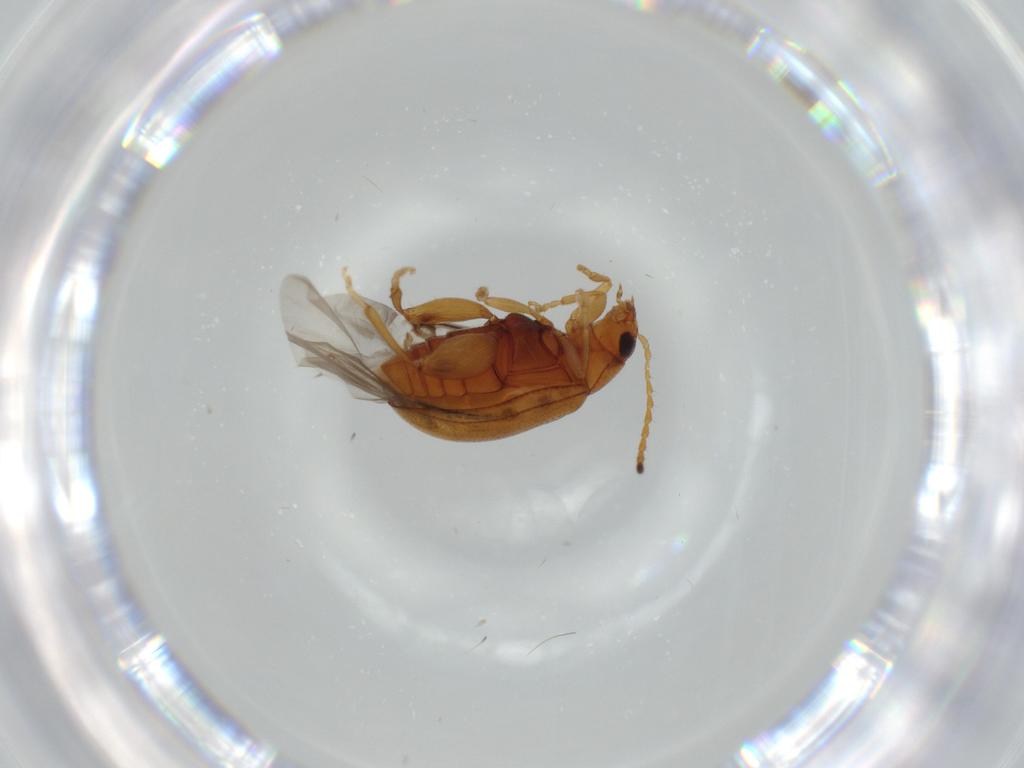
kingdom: Animalia
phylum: Arthropoda
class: Insecta
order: Coleoptera
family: Chrysomelidae
